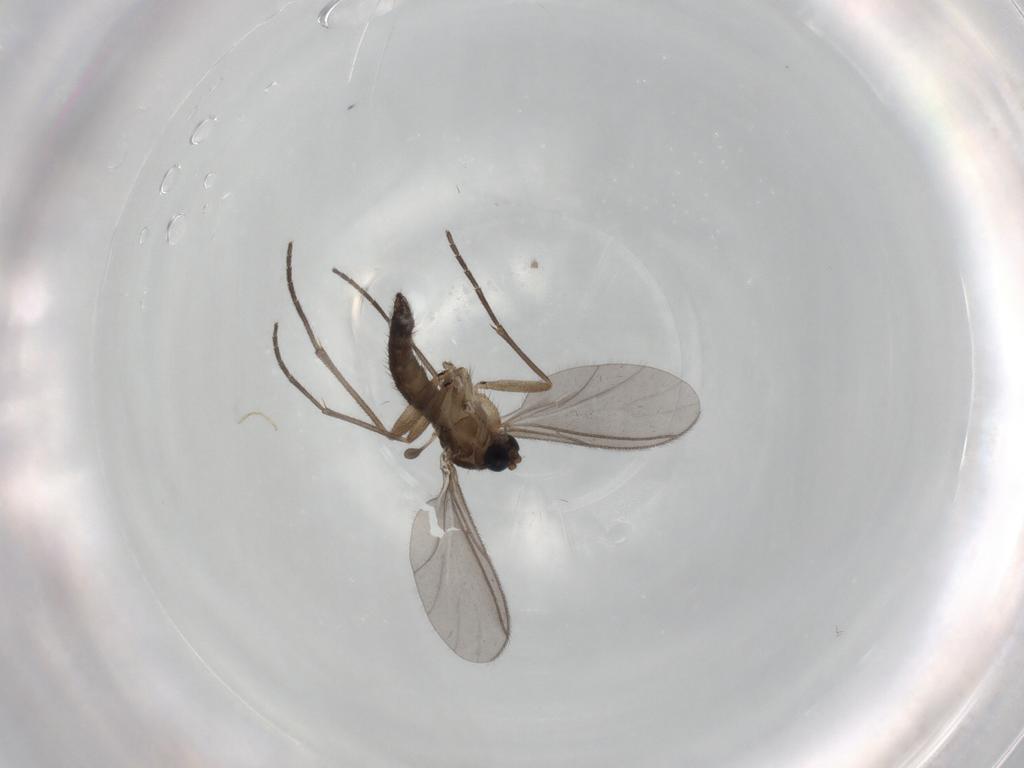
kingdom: Animalia
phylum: Arthropoda
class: Insecta
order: Diptera
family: Sciaridae
